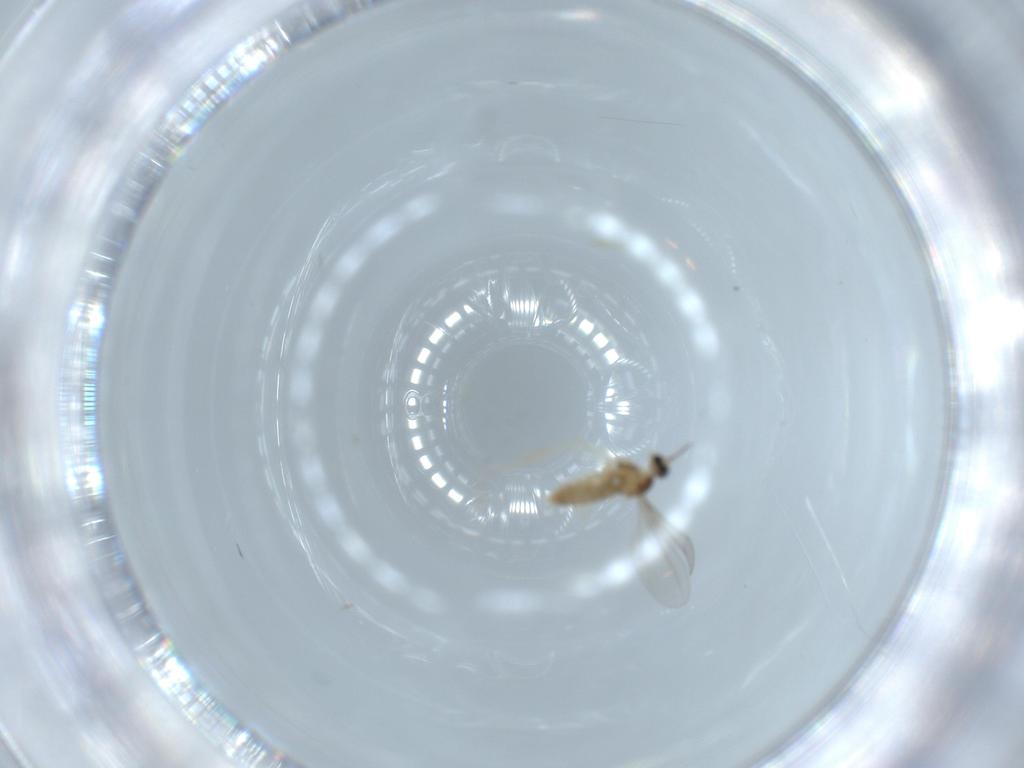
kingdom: Animalia
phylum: Arthropoda
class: Insecta
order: Diptera
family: Cecidomyiidae
